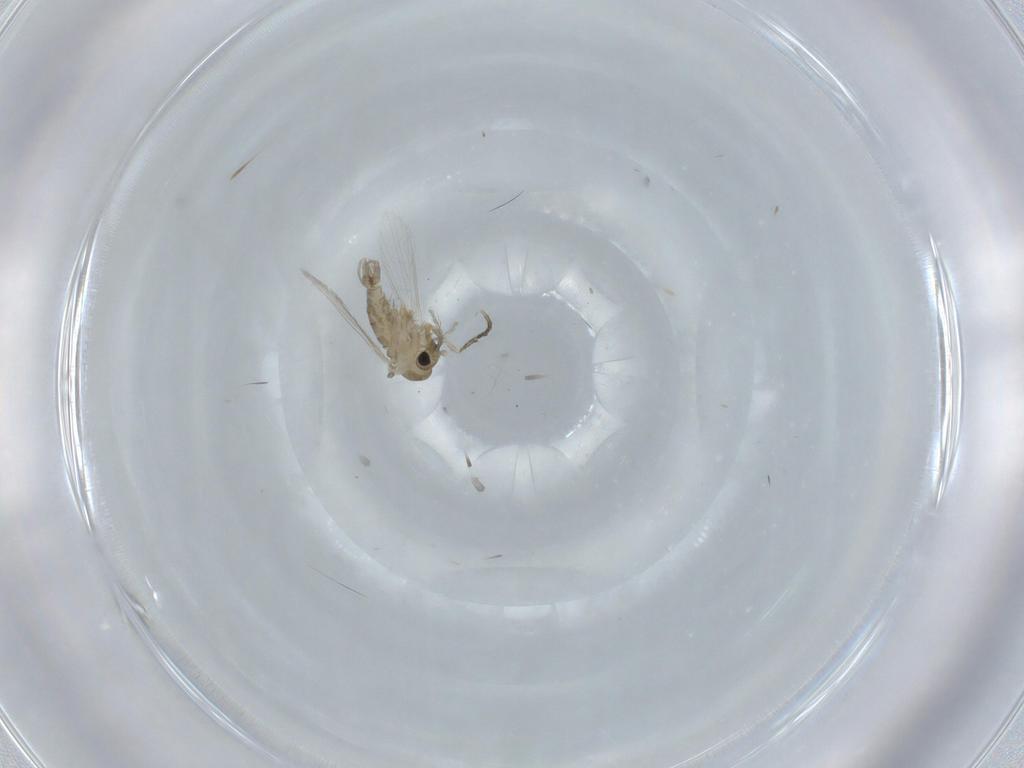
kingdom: Animalia
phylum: Arthropoda
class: Insecta
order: Diptera
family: Psychodidae
